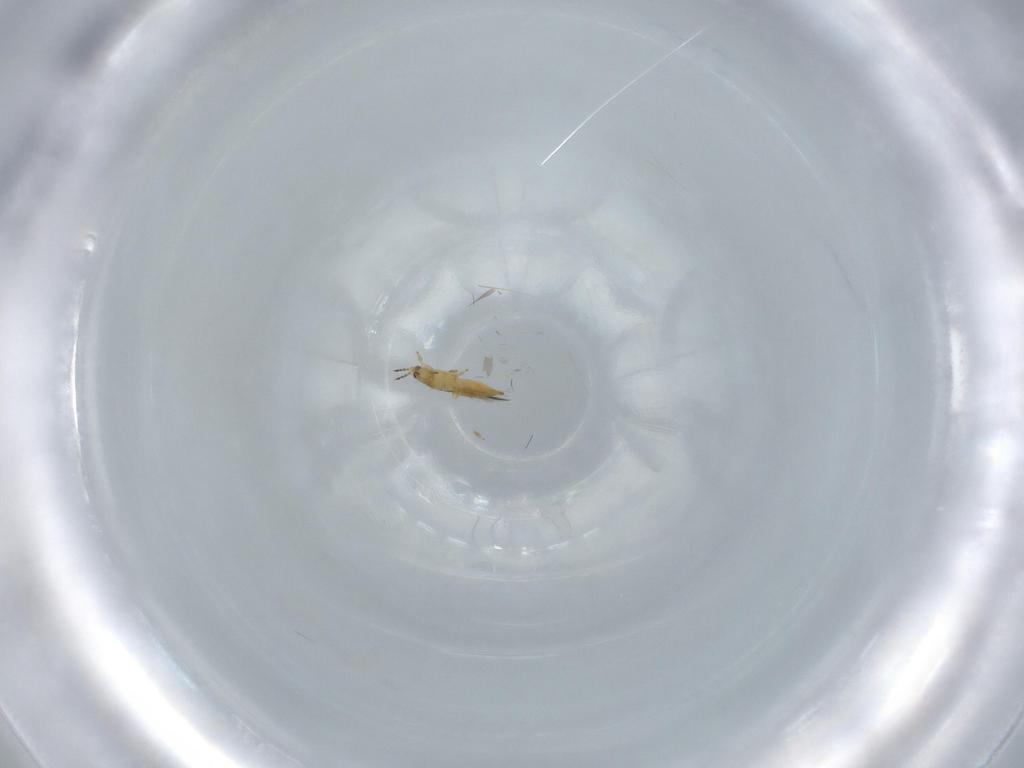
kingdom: Animalia
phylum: Arthropoda
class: Insecta
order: Thysanoptera
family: Thripidae
